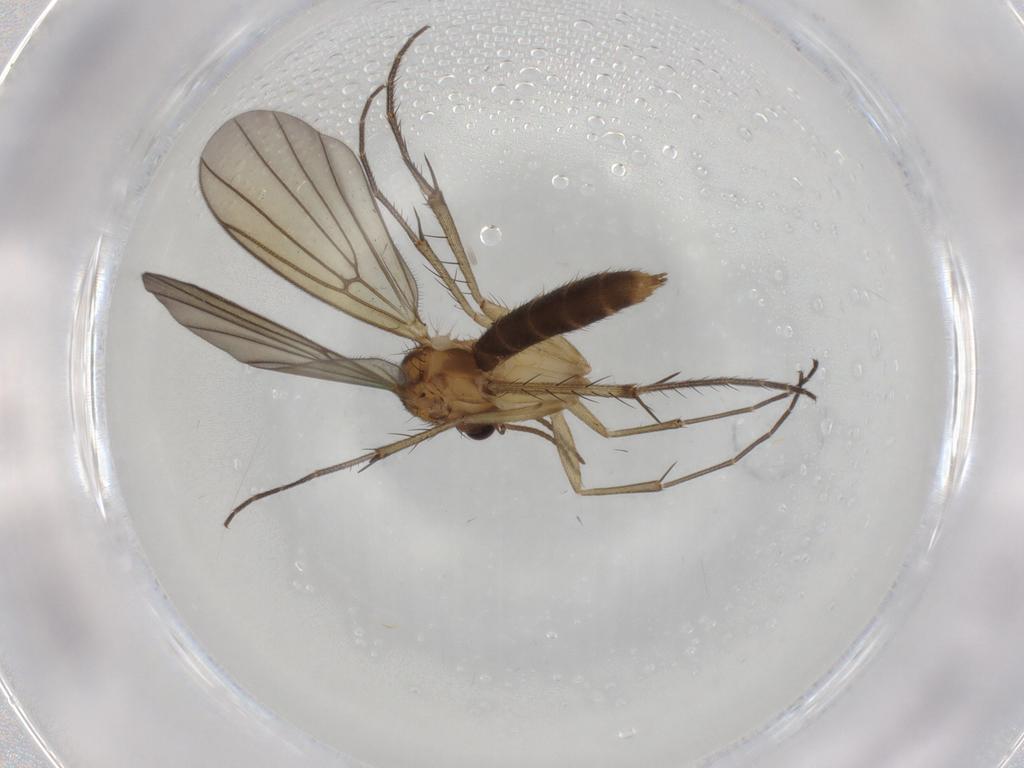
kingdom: Animalia
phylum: Arthropoda
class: Insecta
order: Diptera
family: Mycetophilidae
